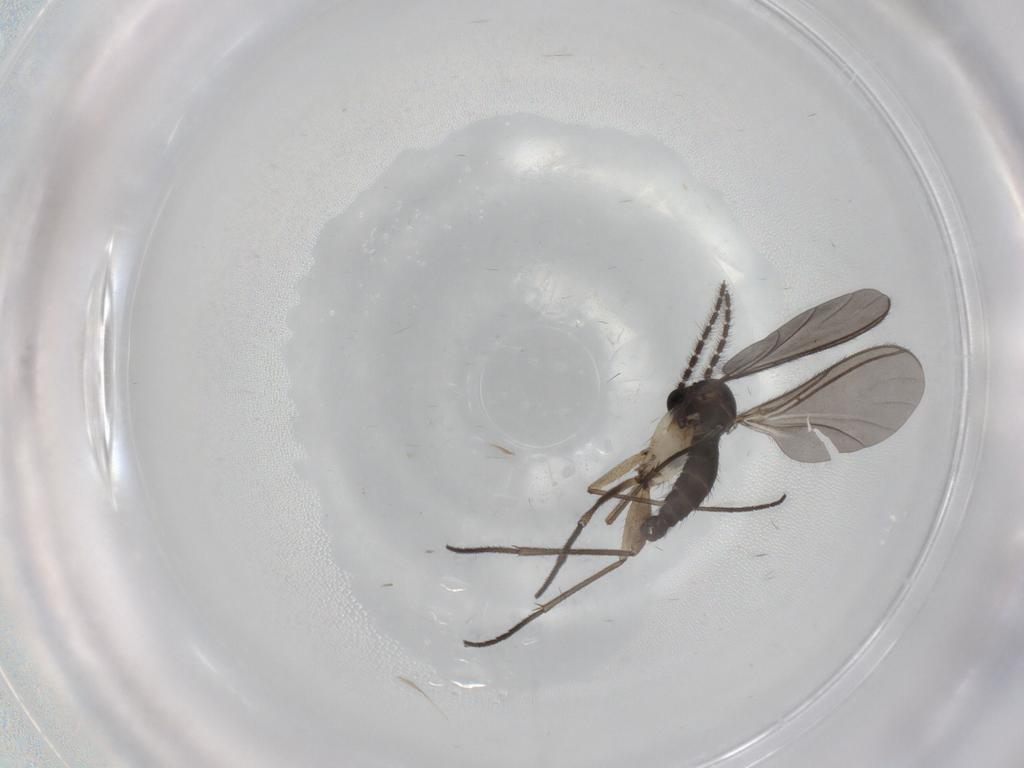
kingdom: Animalia
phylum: Arthropoda
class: Insecta
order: Diptera
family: Sciaridae
